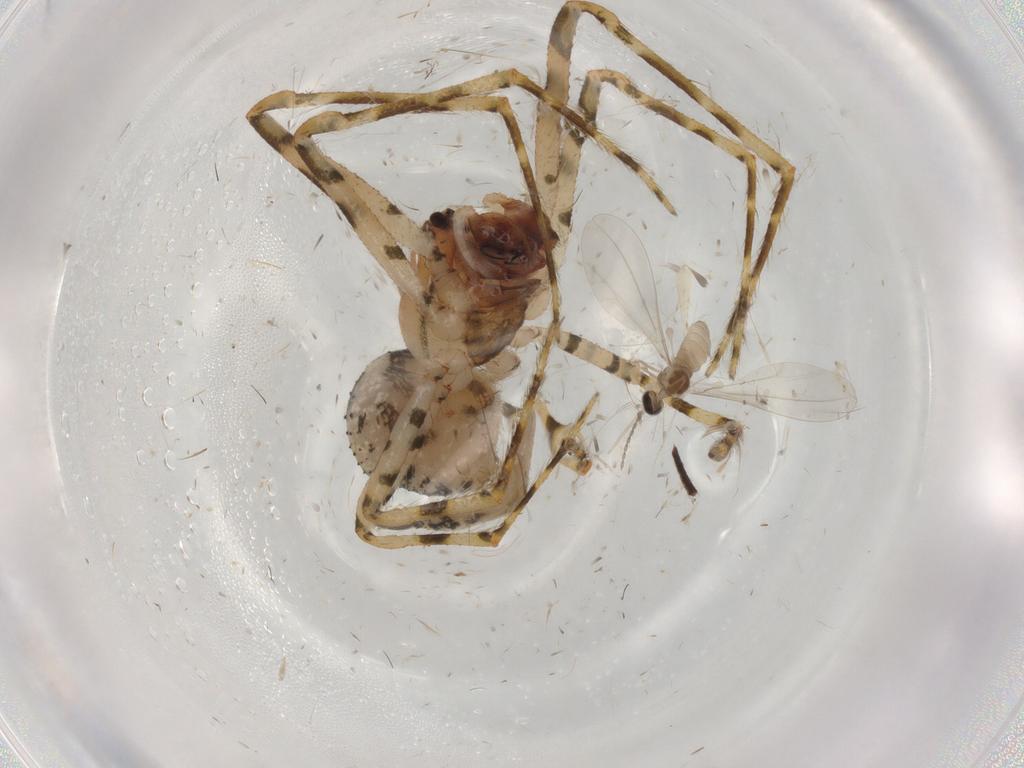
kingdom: Animalia
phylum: Arthropoda
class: Arachnida
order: Araneae
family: Theridiidae
